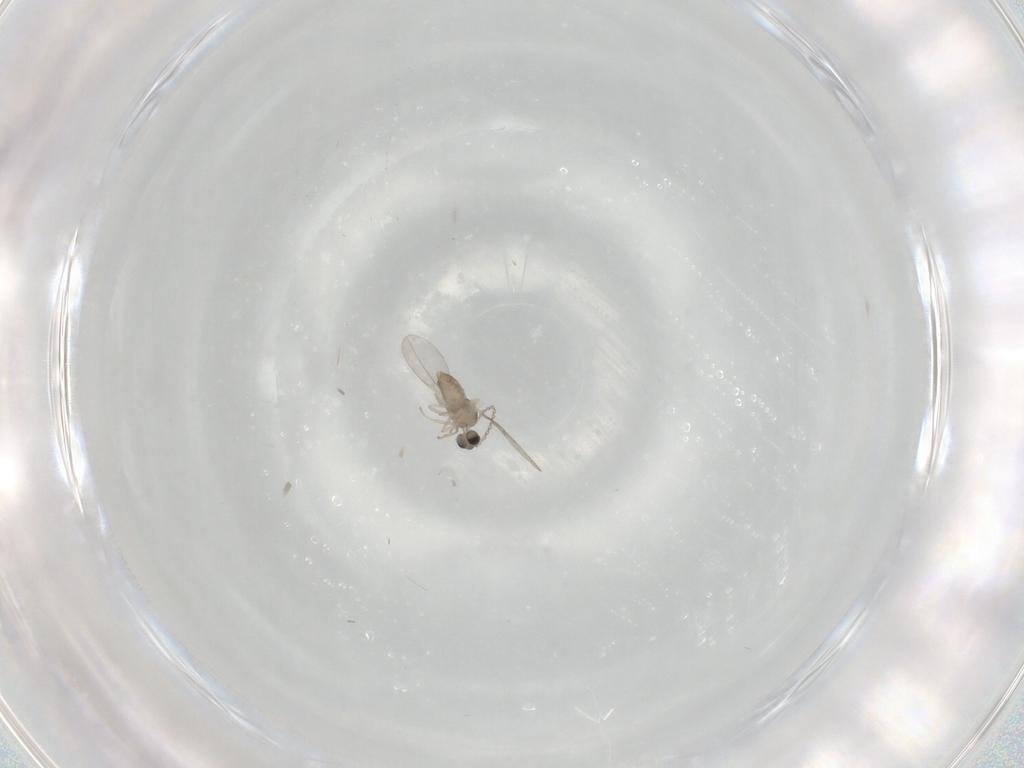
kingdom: Animalia
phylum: Arthropoda
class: Insecta
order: Diptera
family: Cecidomyiidae
